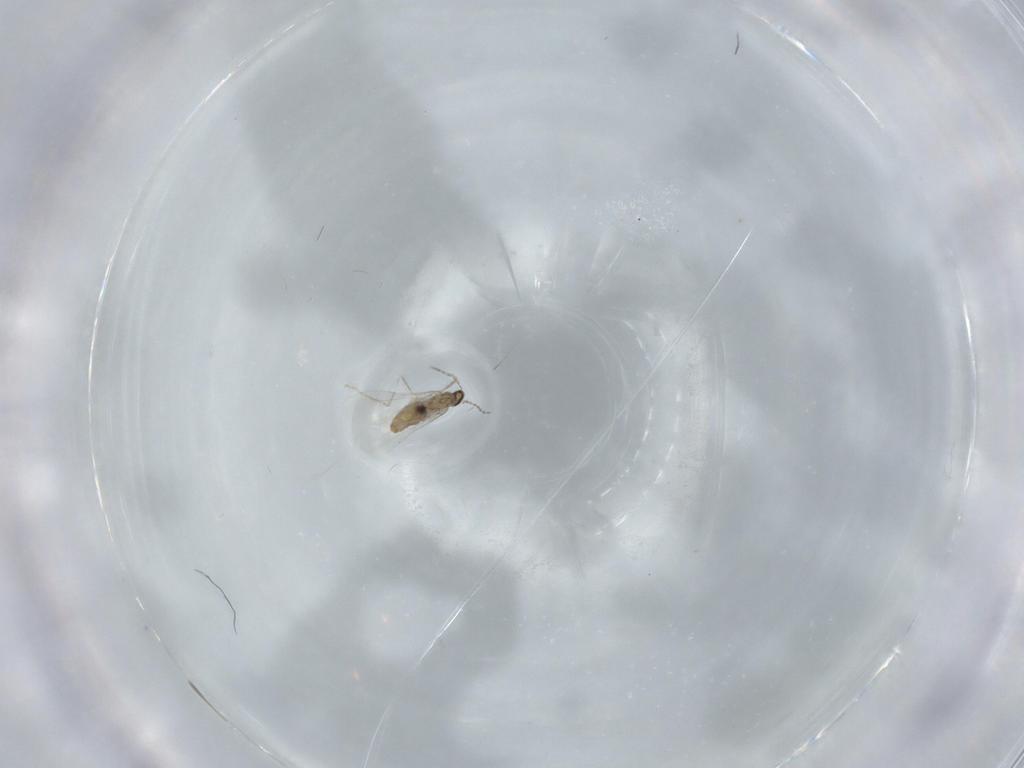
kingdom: Animalia
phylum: Arthropoda
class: Insecta
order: Diptera
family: Cecidomyiidae
